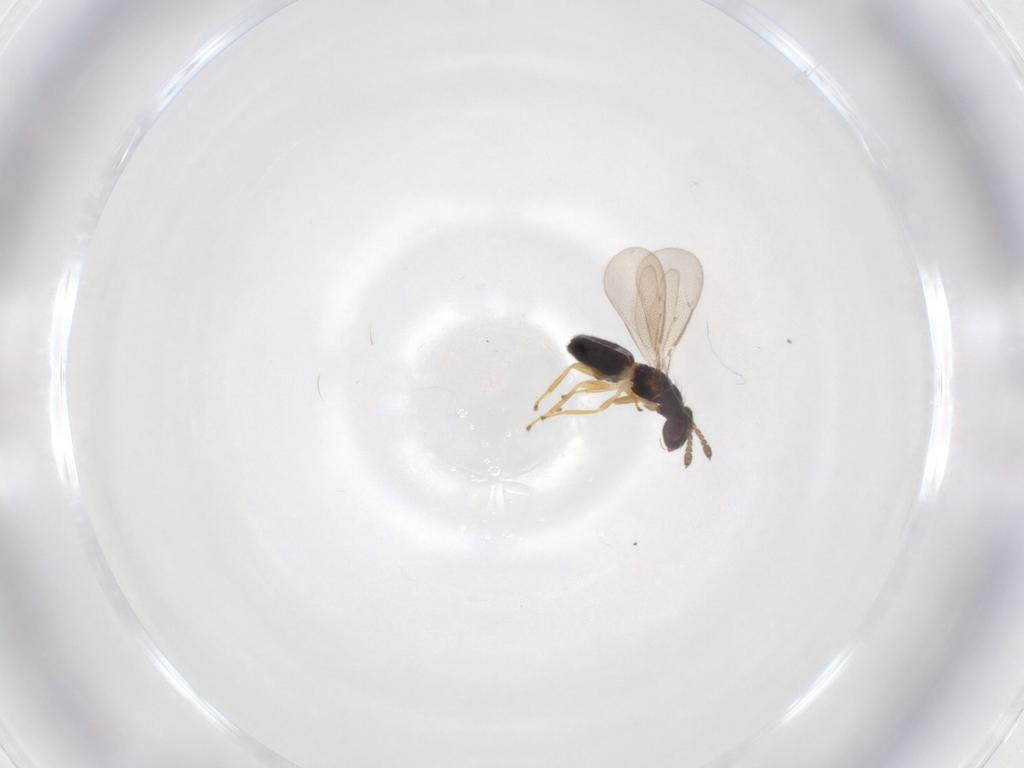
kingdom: Animalia
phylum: Arthropoda
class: Insecta
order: Hymenoptera
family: Eulophidae
